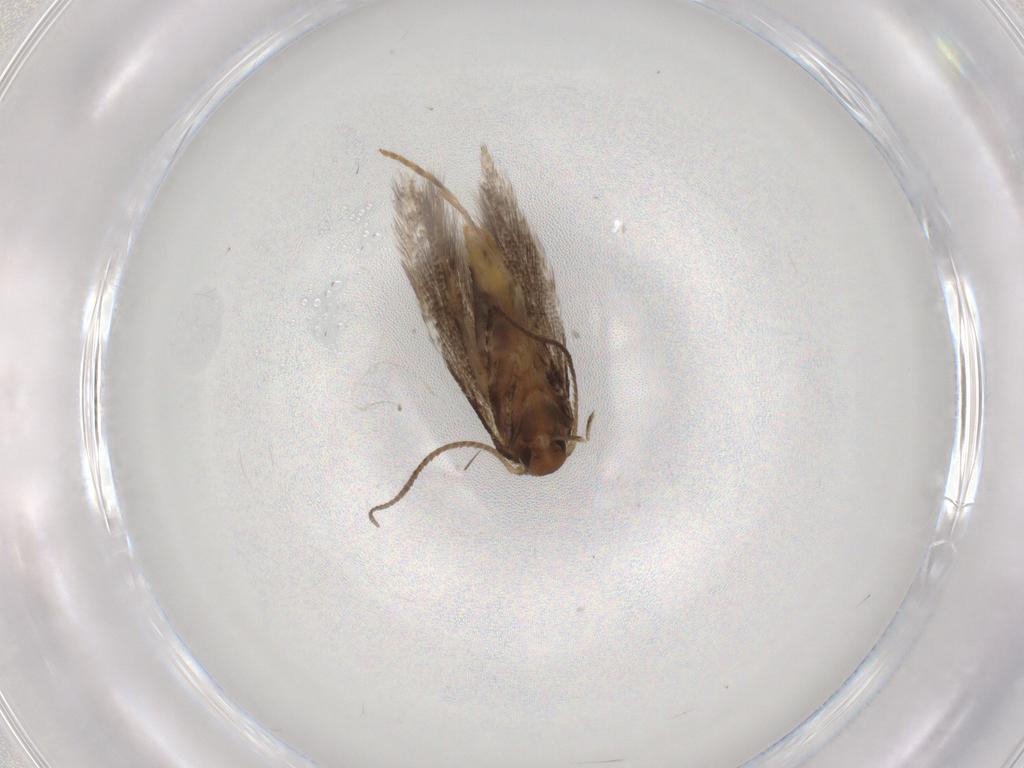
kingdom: Animalia
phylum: Arthropoda
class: Insecta
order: Lepidoptera
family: Elachistidae
